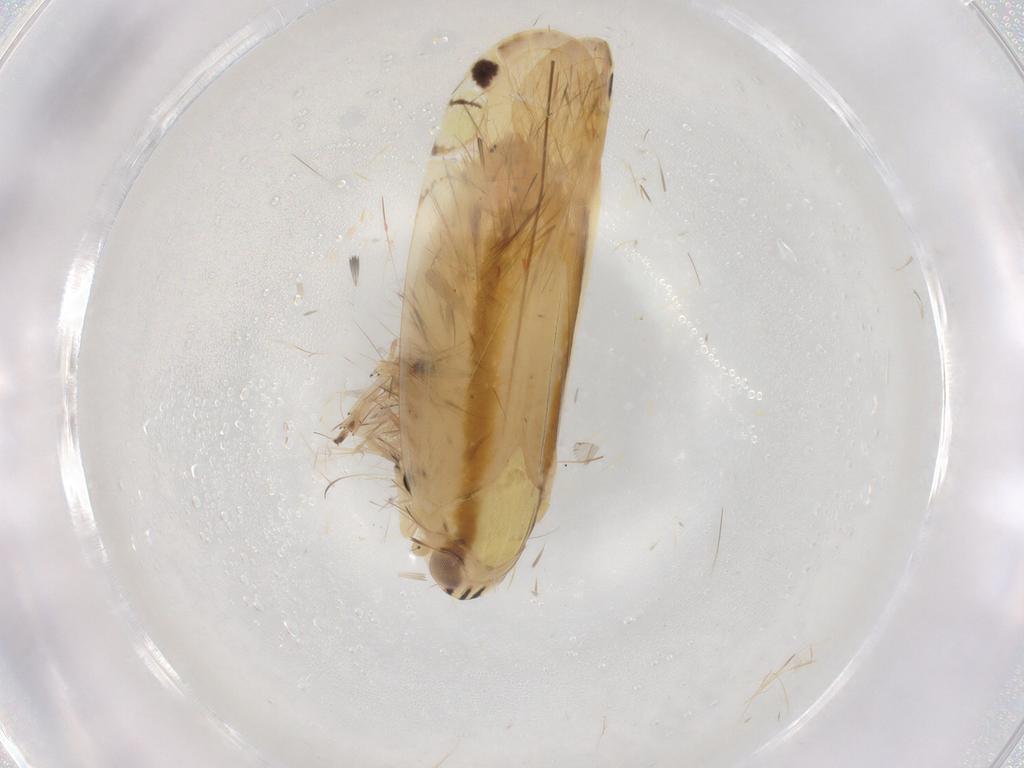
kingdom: Animalia
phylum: Arthropoda
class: Insecta
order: Hemiptera
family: Achilidae
